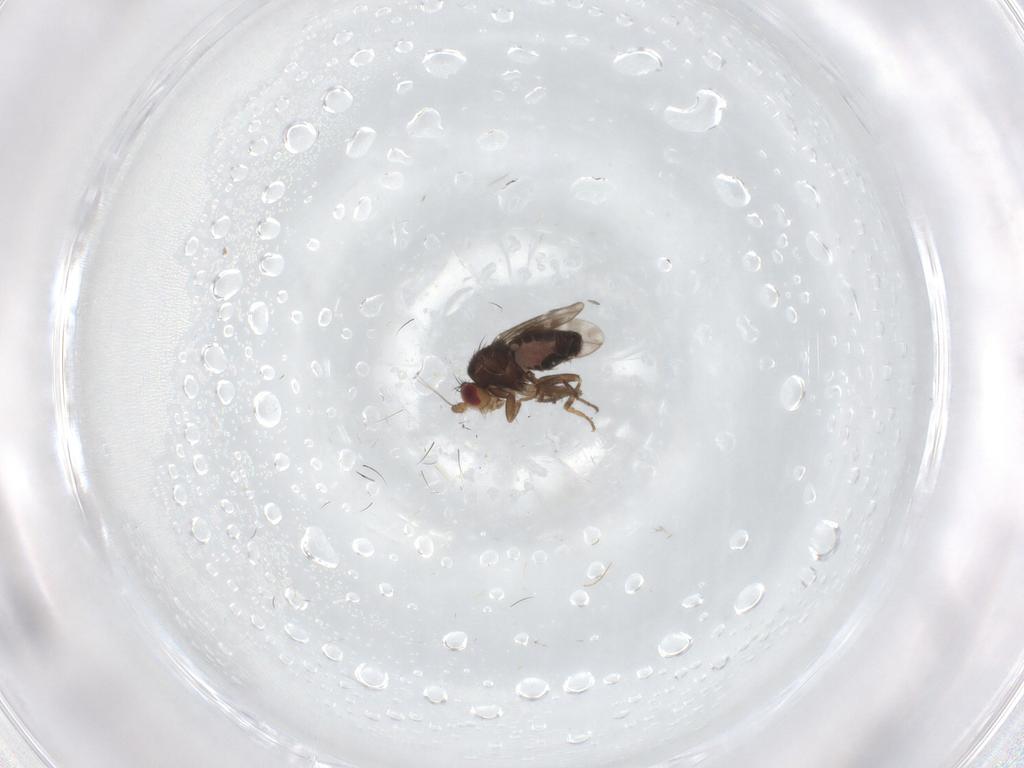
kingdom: Animalia
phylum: Arthropoda
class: Insecta
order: Diptera
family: Sphaeroceridae
